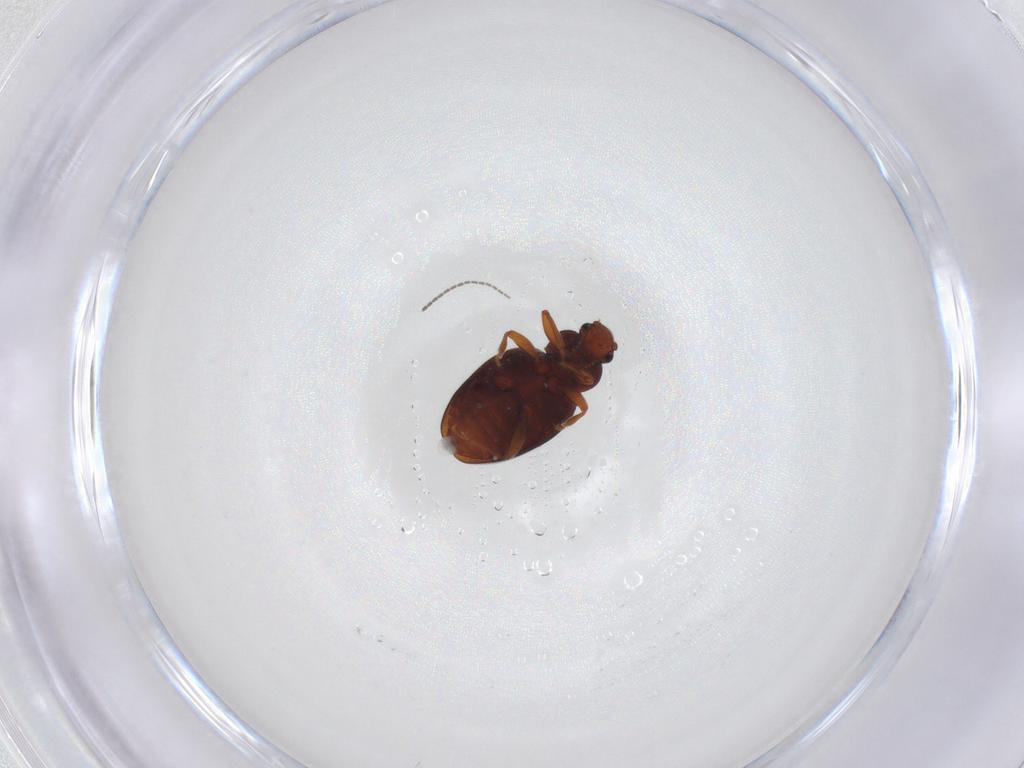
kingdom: Animalia
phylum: Arthropoda
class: Insecta
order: Coleoptera
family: Latridiidae
